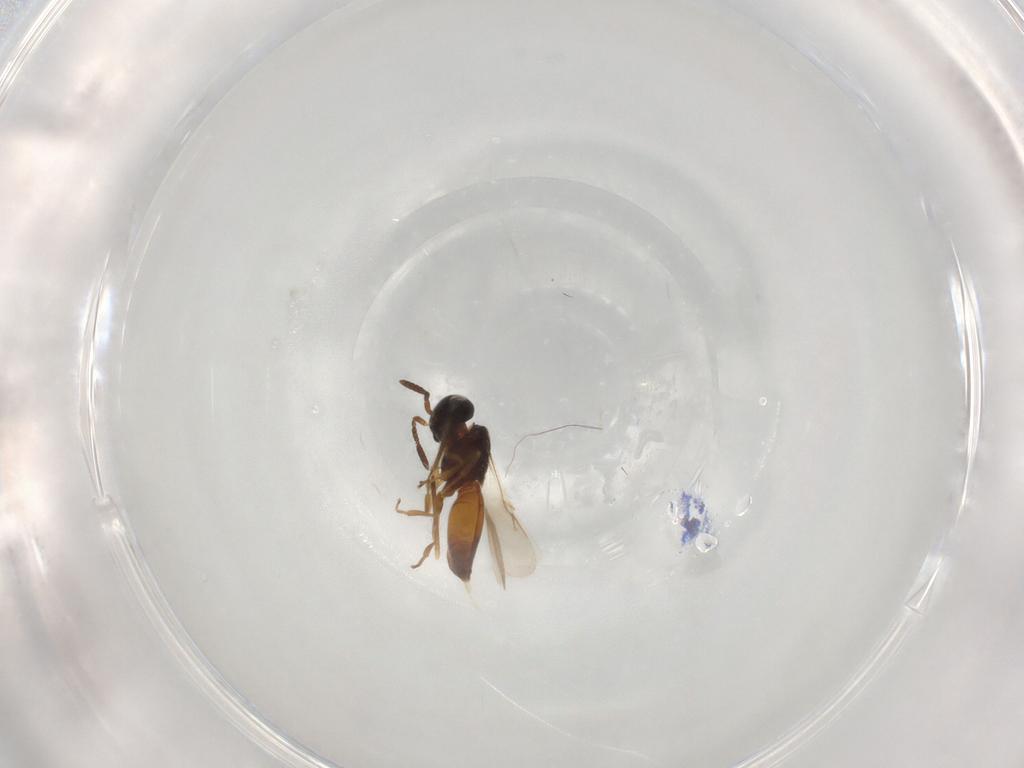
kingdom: Animalia
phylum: Arthropoda
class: Insecta
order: Hymenoptera
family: Scelionidae
